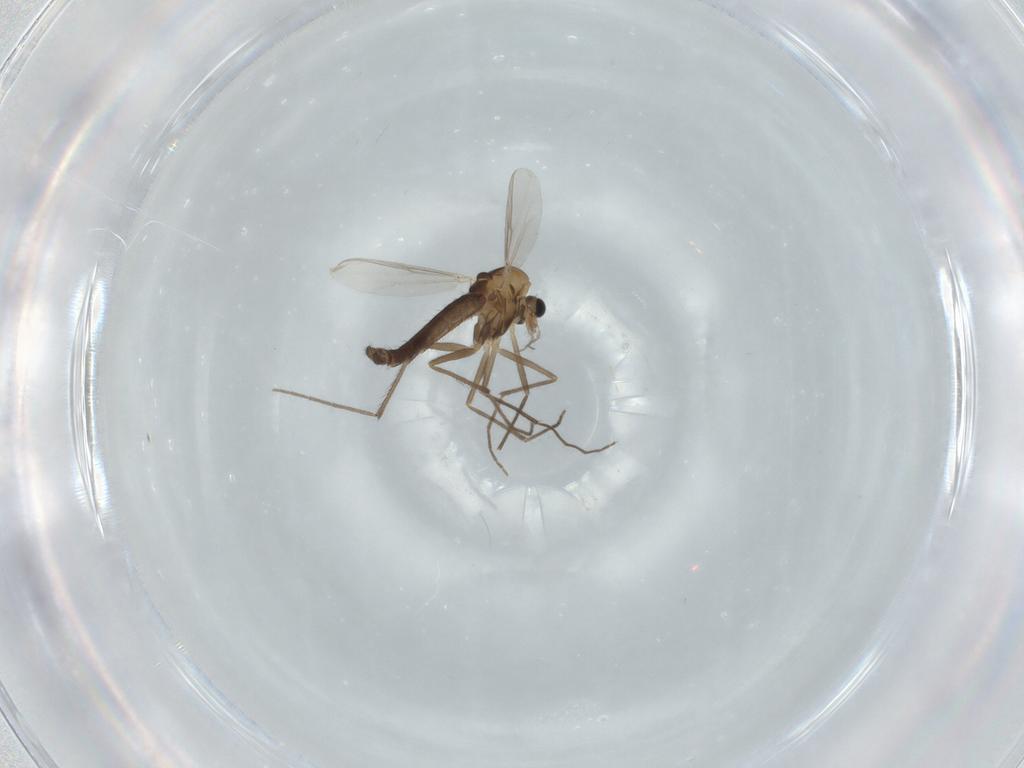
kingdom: Animalia
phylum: Arthropoda
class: Insecta
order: Diptera
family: Chironomidae
